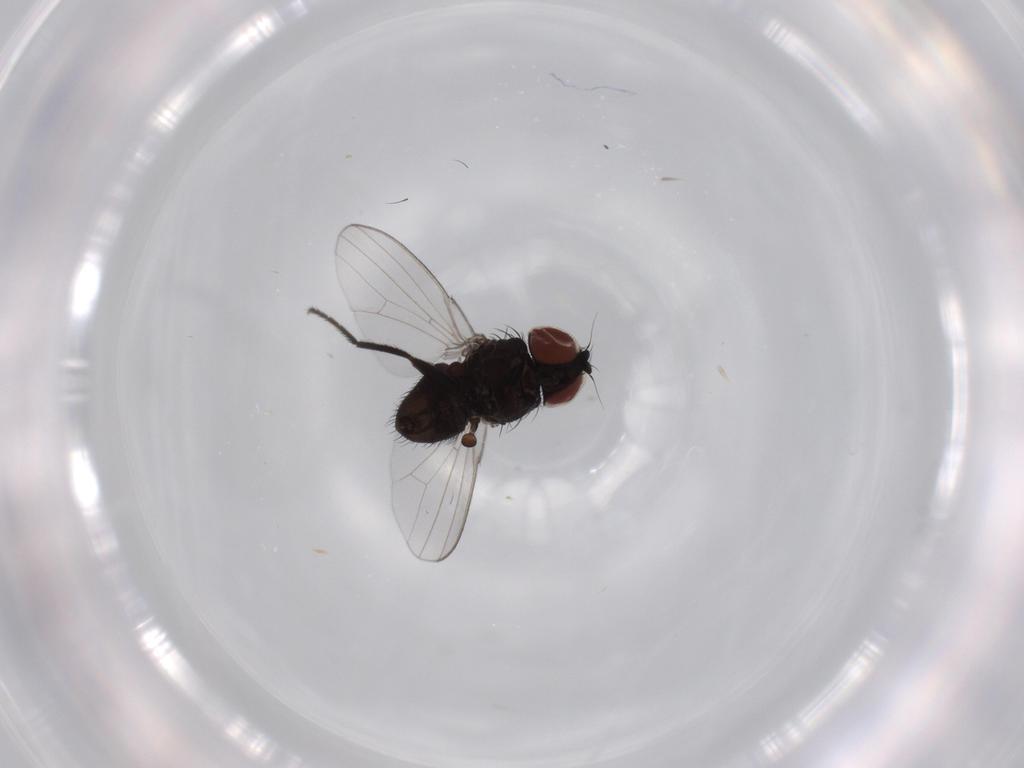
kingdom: Animalia
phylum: Arthropoda
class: Insecta
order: Diptera
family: Milichiidae
